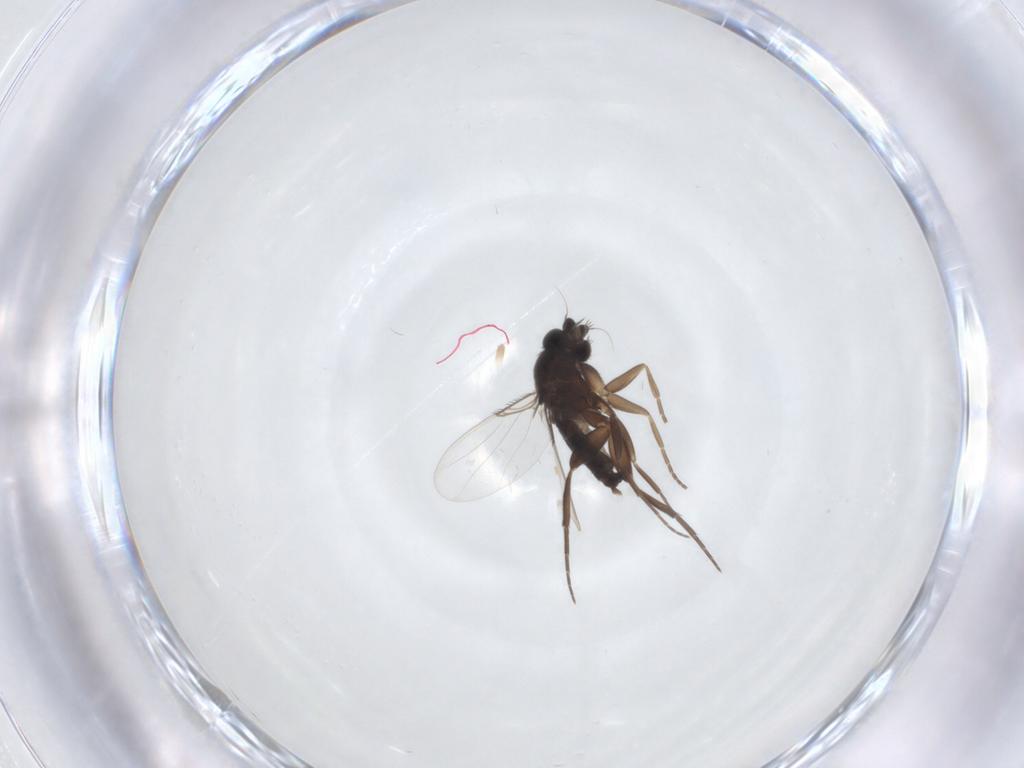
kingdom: Animalia
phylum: Arthropoda
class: Insecta
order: Diptera
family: Phoridae
